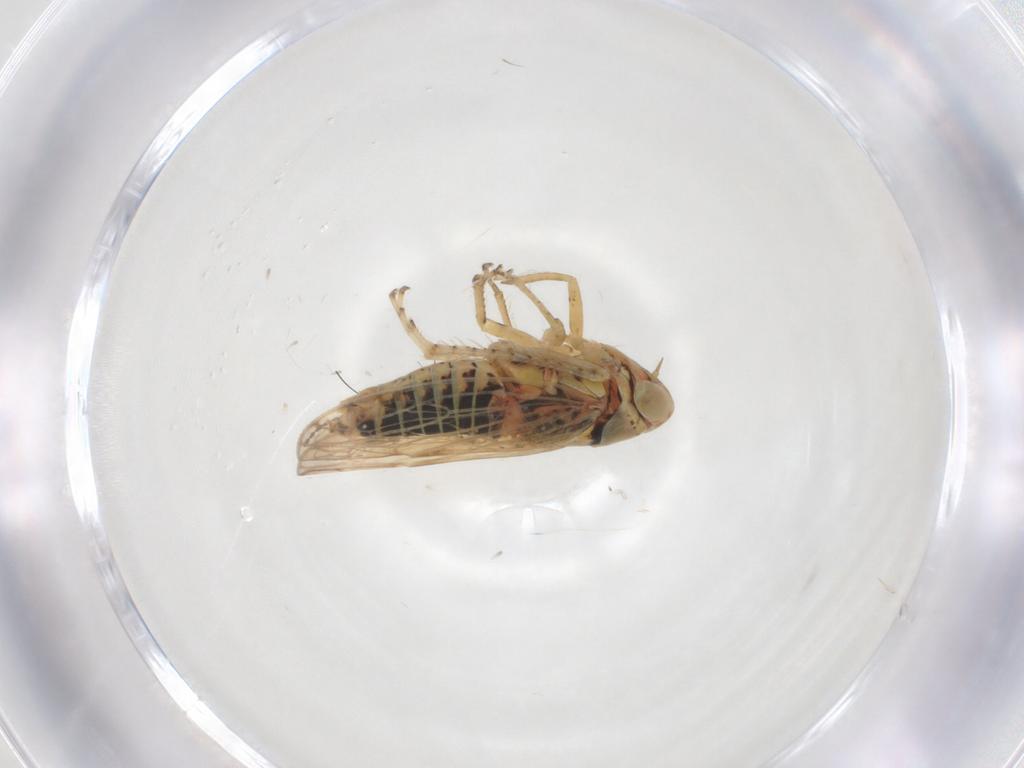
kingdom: Animalia
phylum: Arthropoda
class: Insecta
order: Hemiptera
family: Cicadellidae
